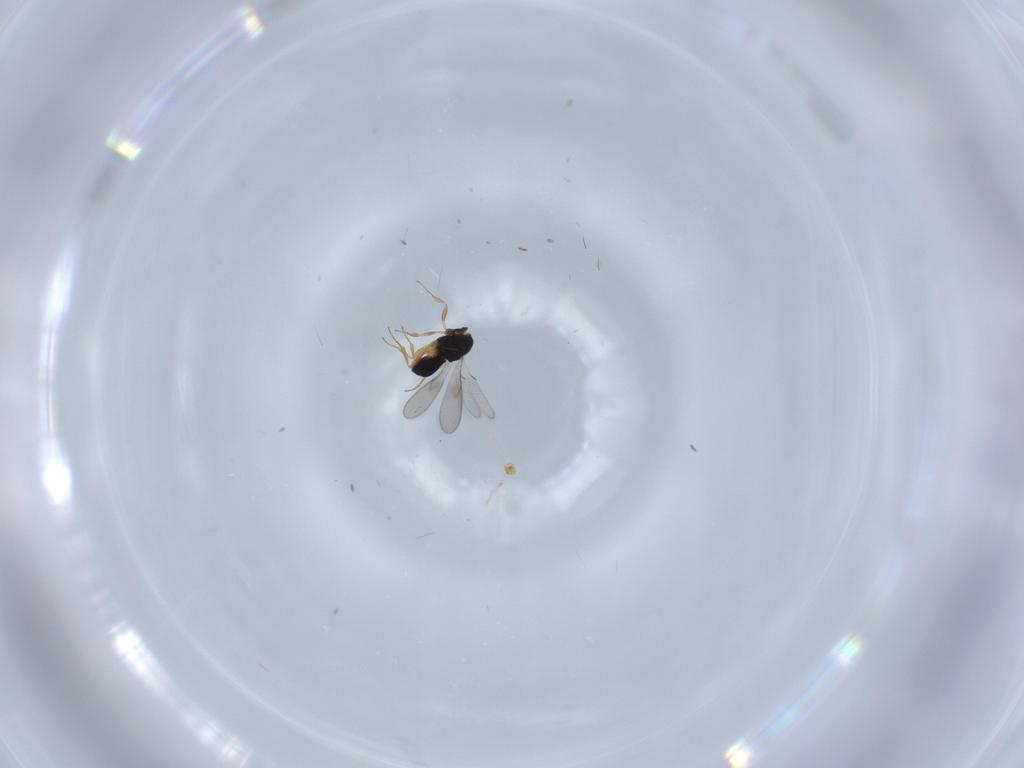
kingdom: Animalia
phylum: Arthropoda
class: Insecta
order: Hymenoptera
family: Scelionidae
